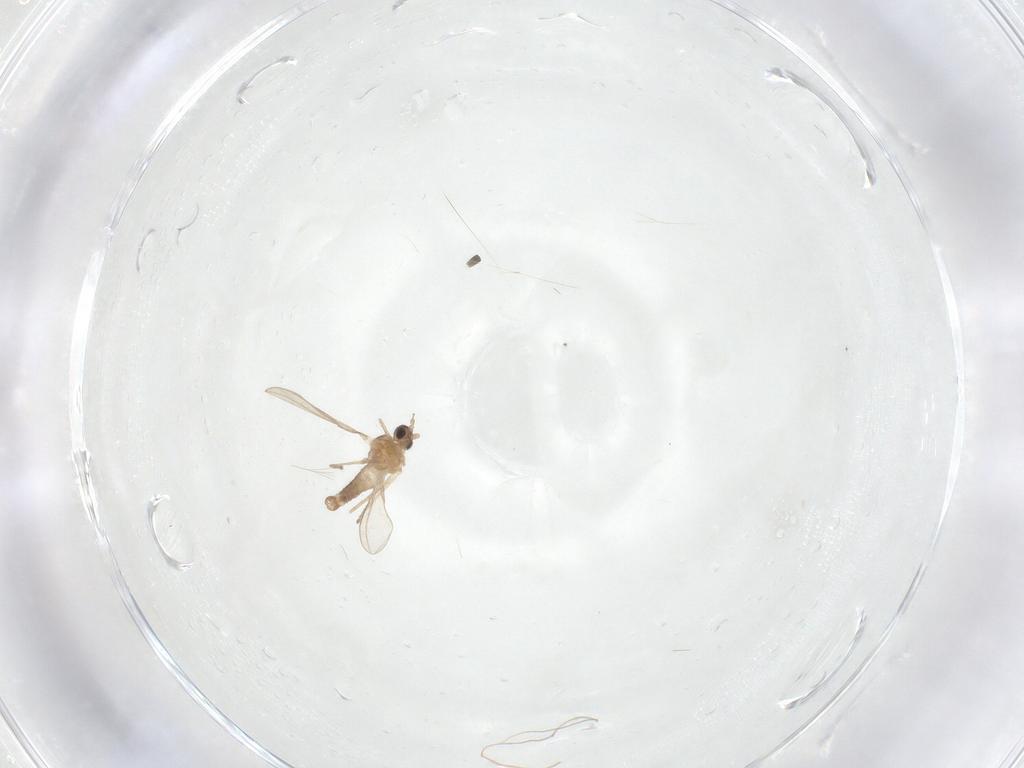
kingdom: Animalia
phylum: Arthropoda
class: Insecta
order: Diptera
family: Cecidomyiidae
